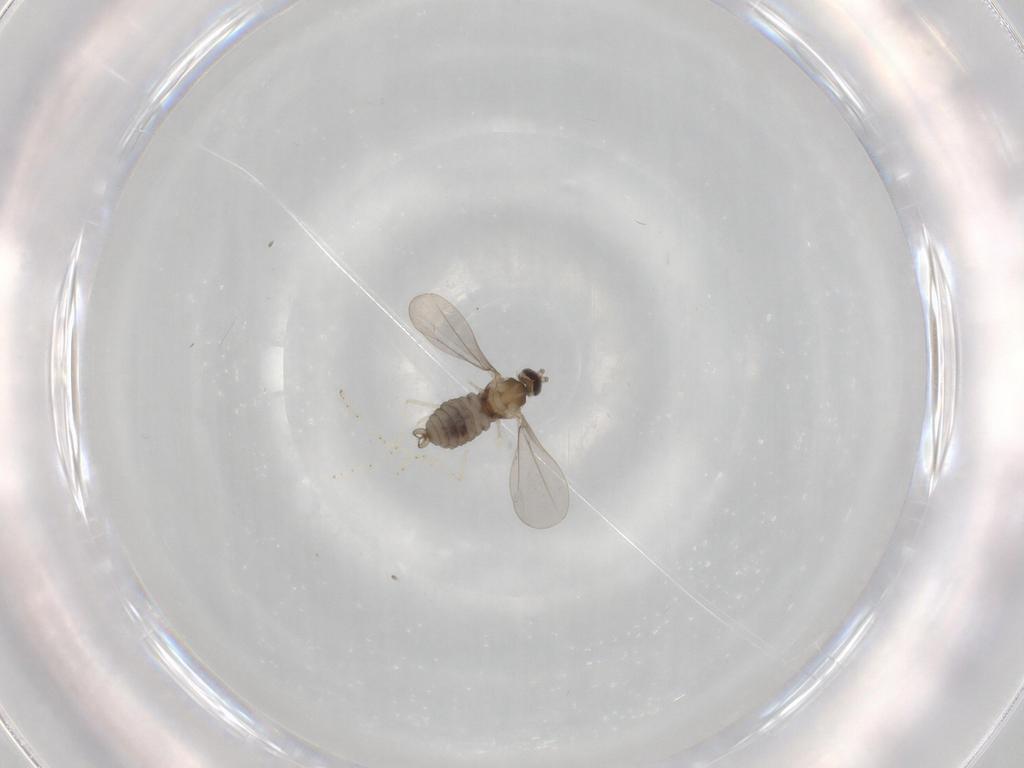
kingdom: Animalia
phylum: Arthropoda
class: Insecta
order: Diptera
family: Cecidomyiidae
